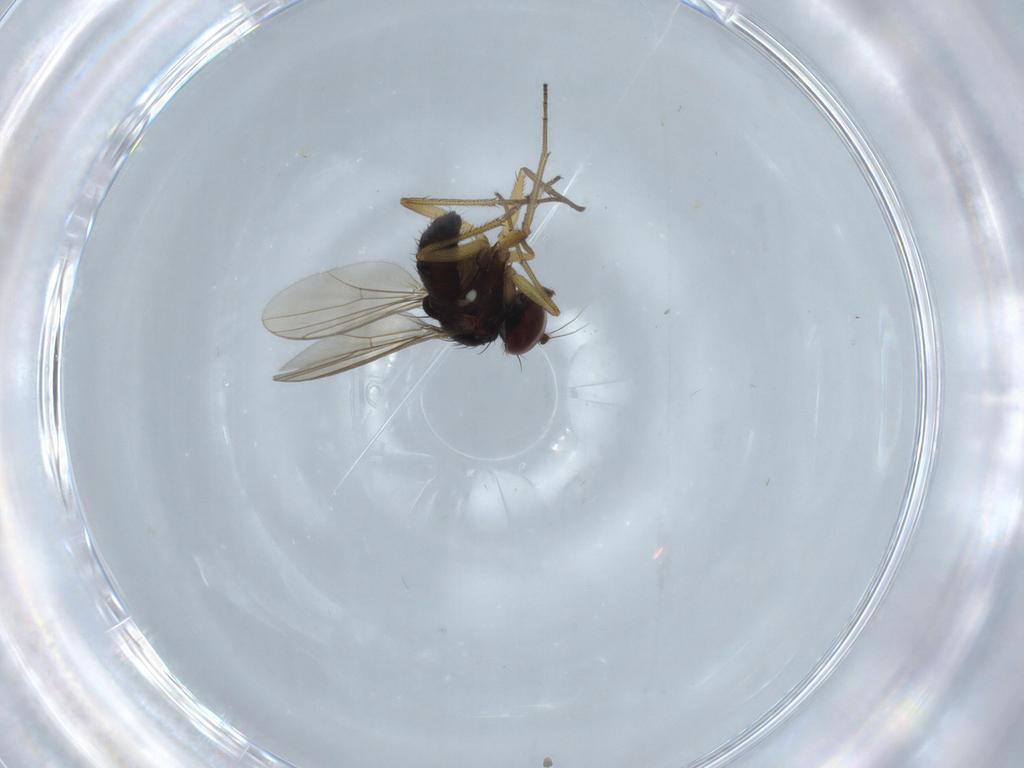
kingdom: Animalia
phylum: Arthropoda
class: Insecta
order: Diptera
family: Dolichopodidae
